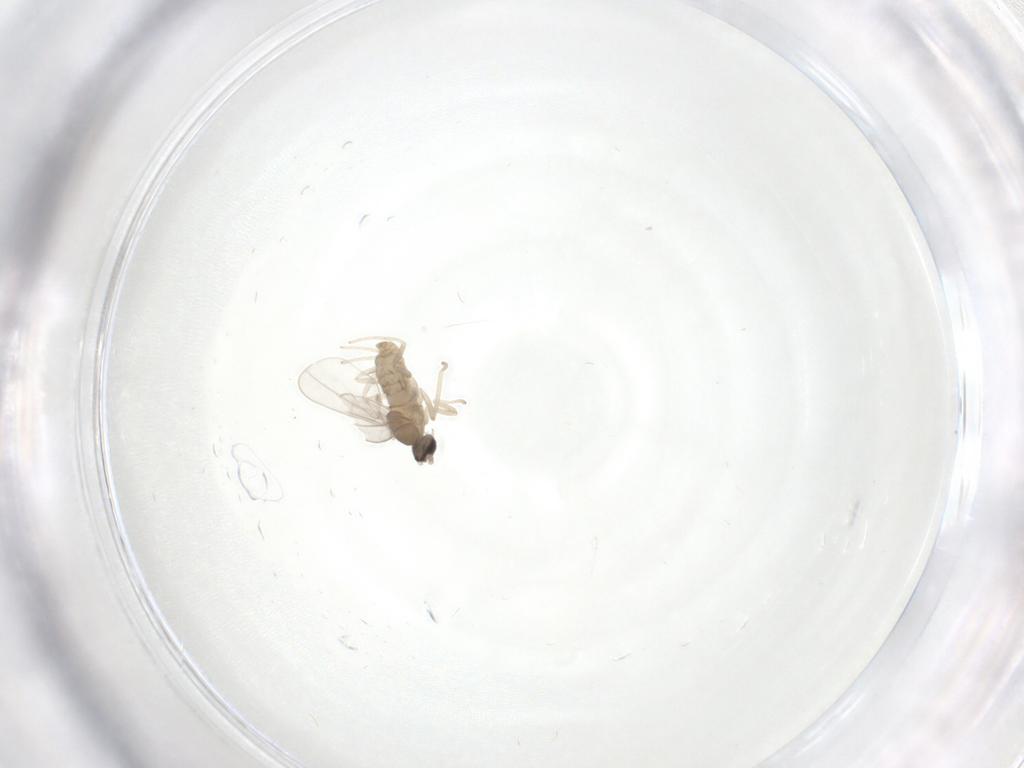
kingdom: Animalia
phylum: Arthropoda
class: Insecta
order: Diptera
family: Cecidomyiidae
